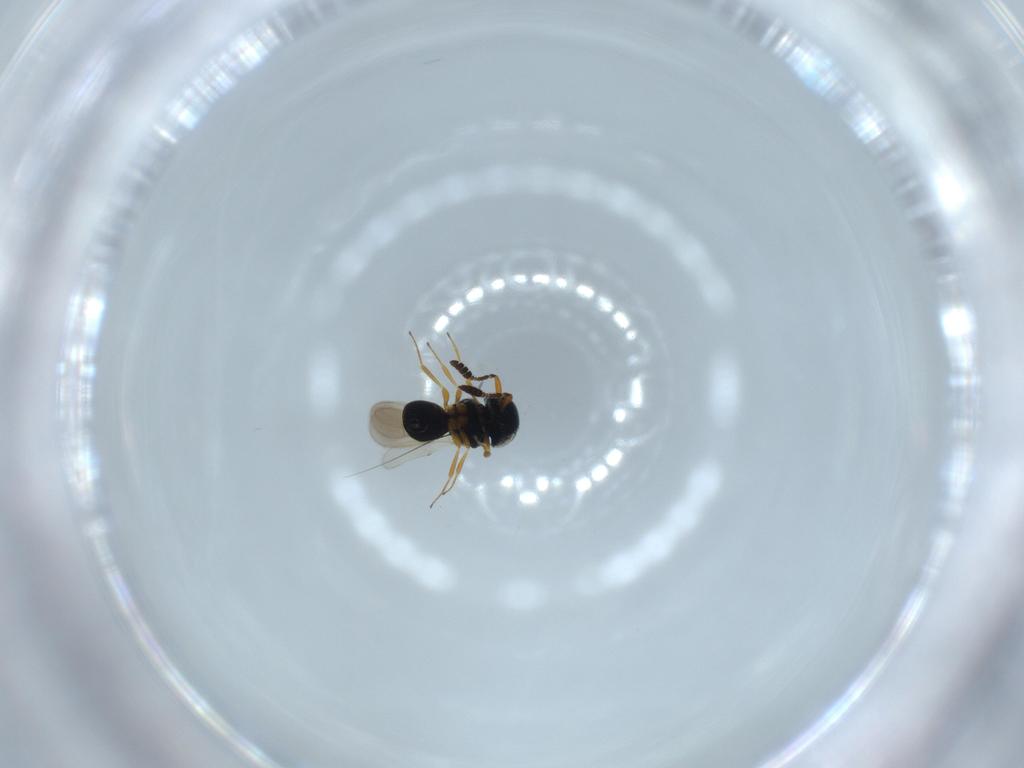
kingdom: Animalia
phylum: Arthropoda
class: Insecta
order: Hymenoptera
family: Scelionidae
